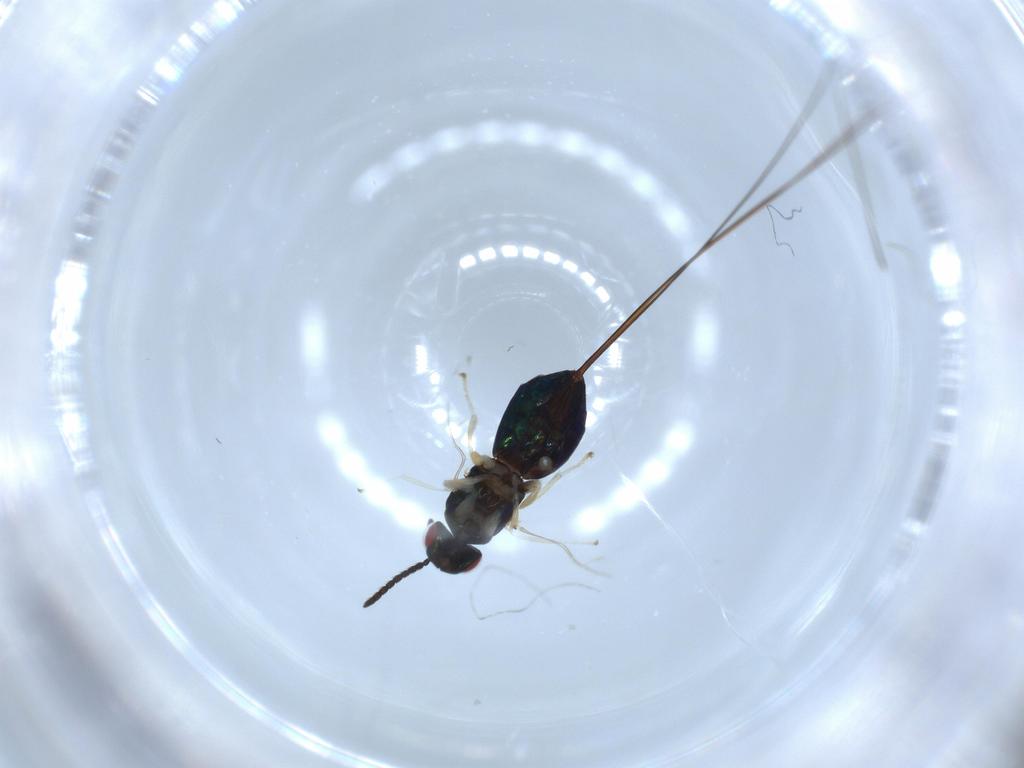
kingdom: Animalia
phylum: Arthropoda
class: Insecta
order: Hymenoptera
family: Agaonidae
